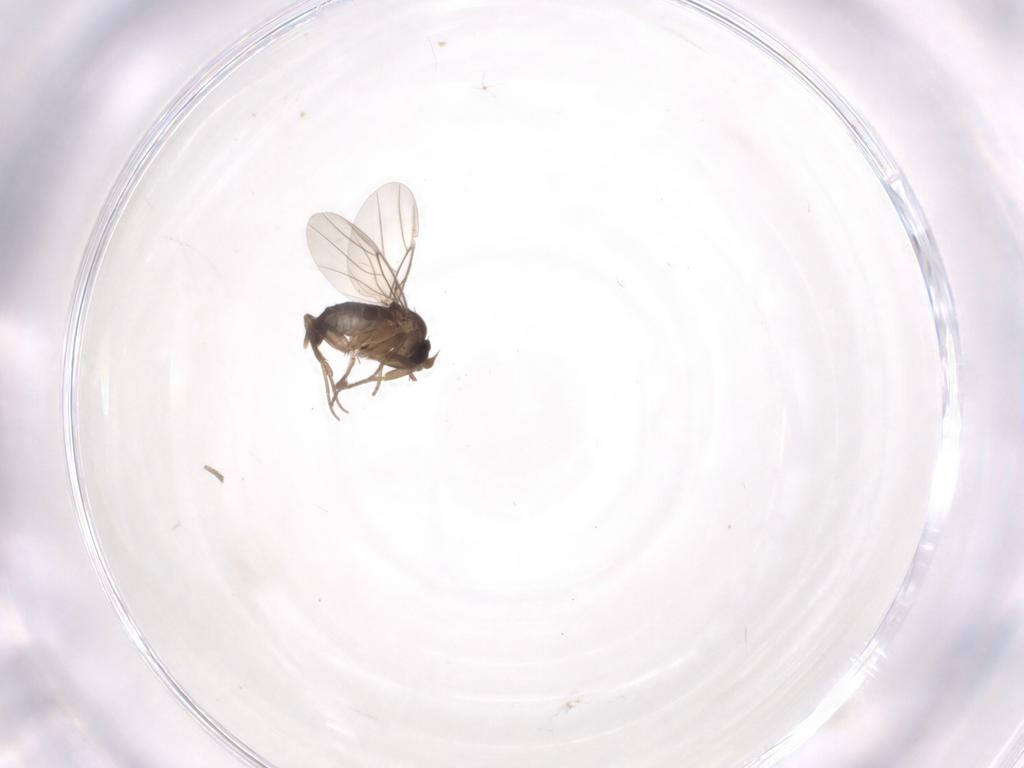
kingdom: Animalia
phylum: Arthropoda
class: Insecta
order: Diptera
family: Phoridae
